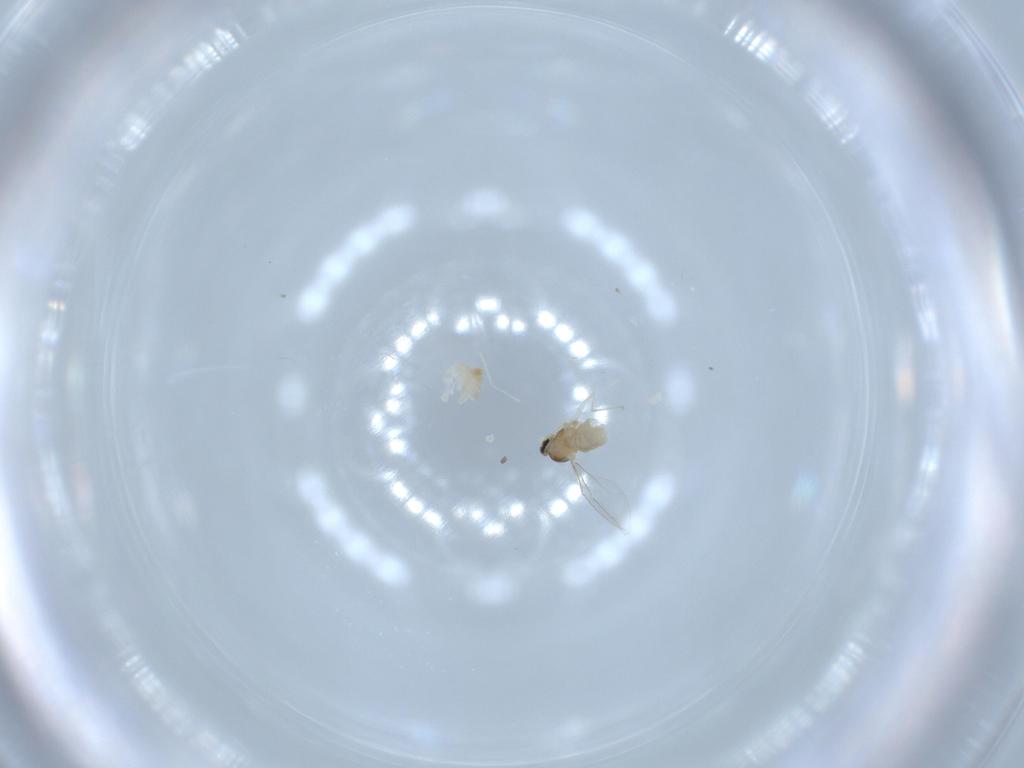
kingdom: Animalia
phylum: Arthropoda
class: Insecta
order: Diptera
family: Cecidomyiidae
